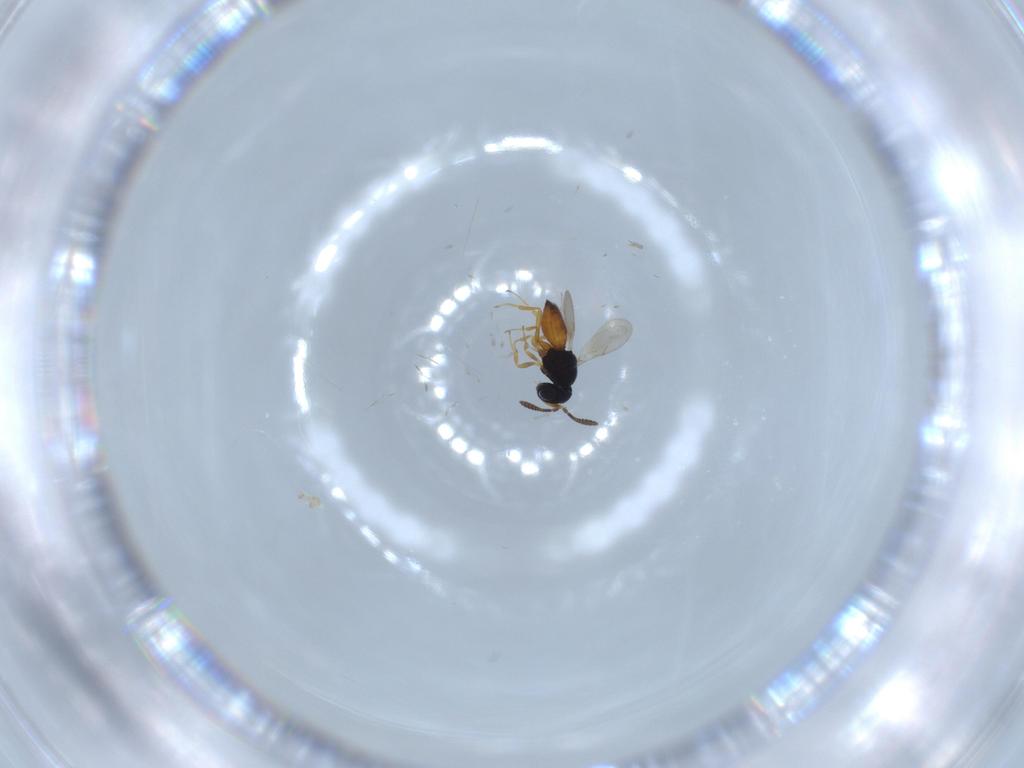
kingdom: Animalia
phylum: Arthropoda
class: Insecta
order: Hymenoptera
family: Scelionidae
